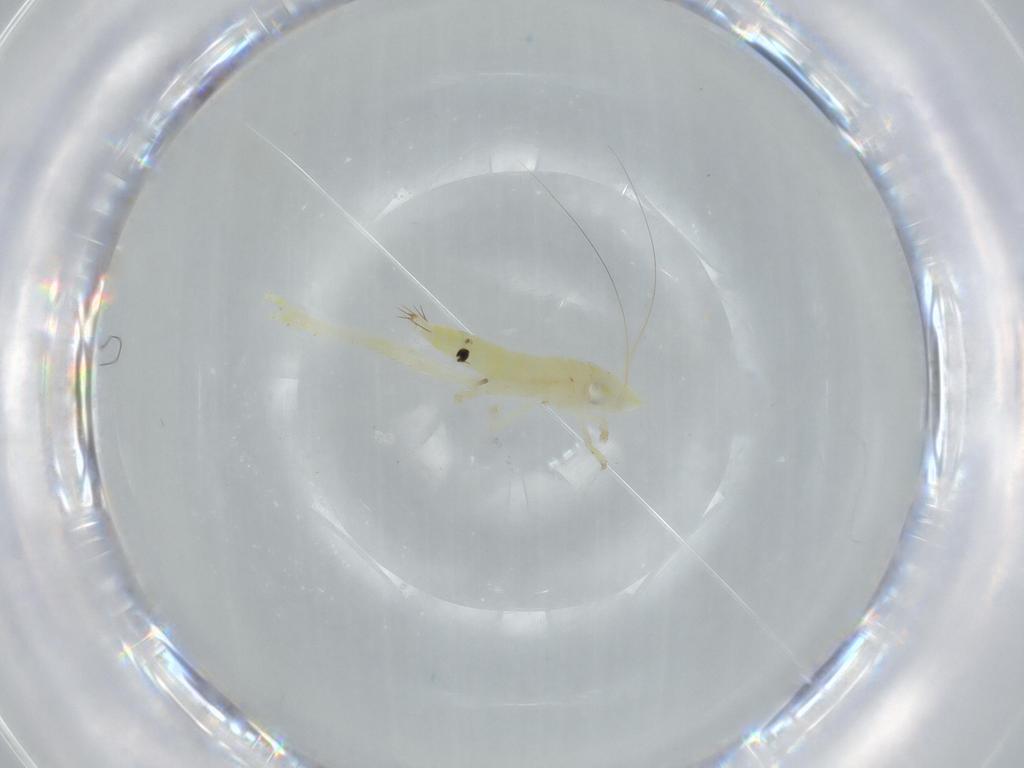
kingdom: Animalia
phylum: Arthropoda
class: Insecta
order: Hemiptera
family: Cicadellidae
